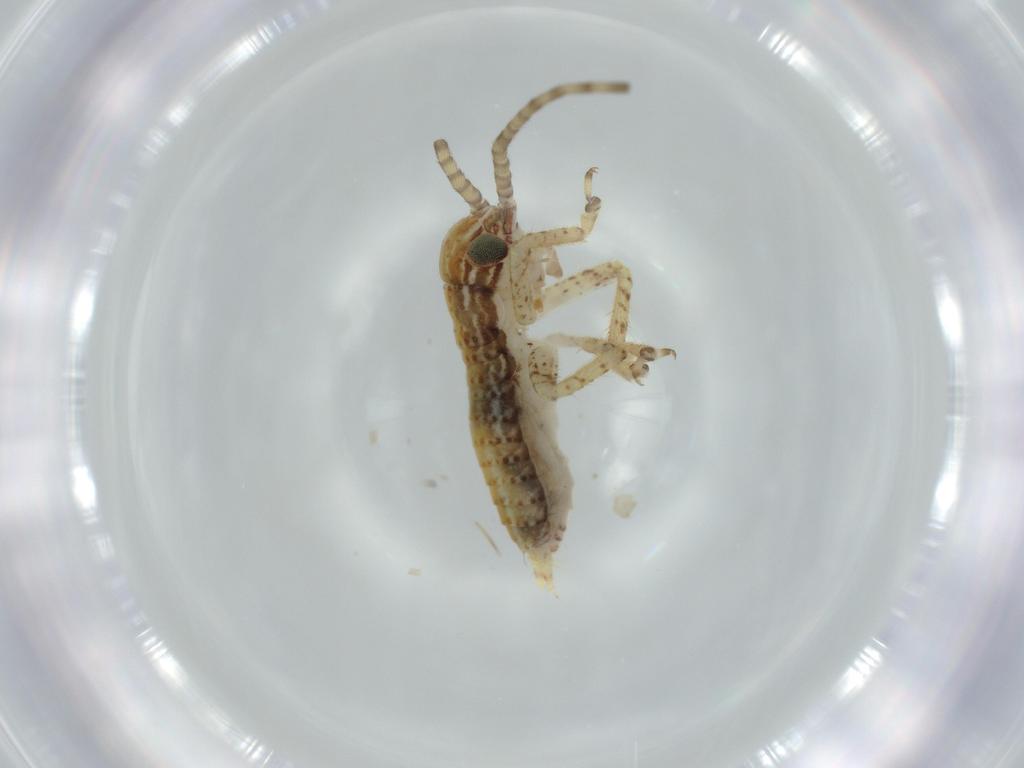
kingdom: Animalia
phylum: Arthropoda
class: Insecta
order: Orthoptera
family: Gryllidae
